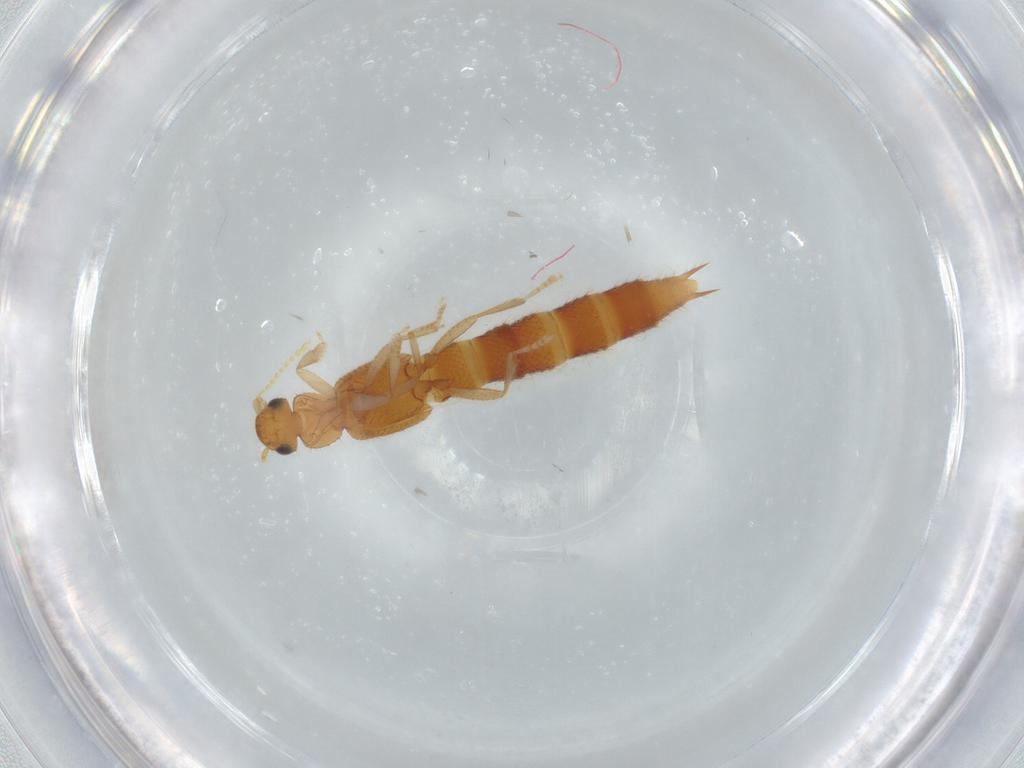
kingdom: Animalia
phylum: Arthropoda
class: Insecta
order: Coleoptera
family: Staphylinidae
